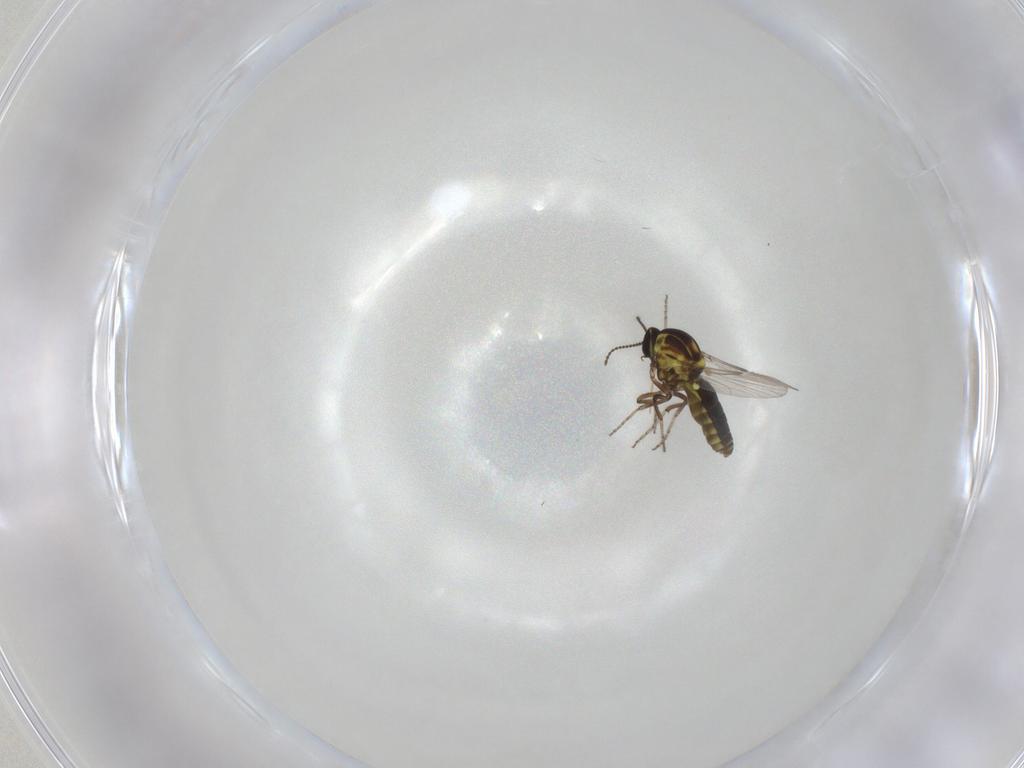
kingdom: Animalia
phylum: Arthropoda
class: Insecta
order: Diptera
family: Ceratopogonidae
